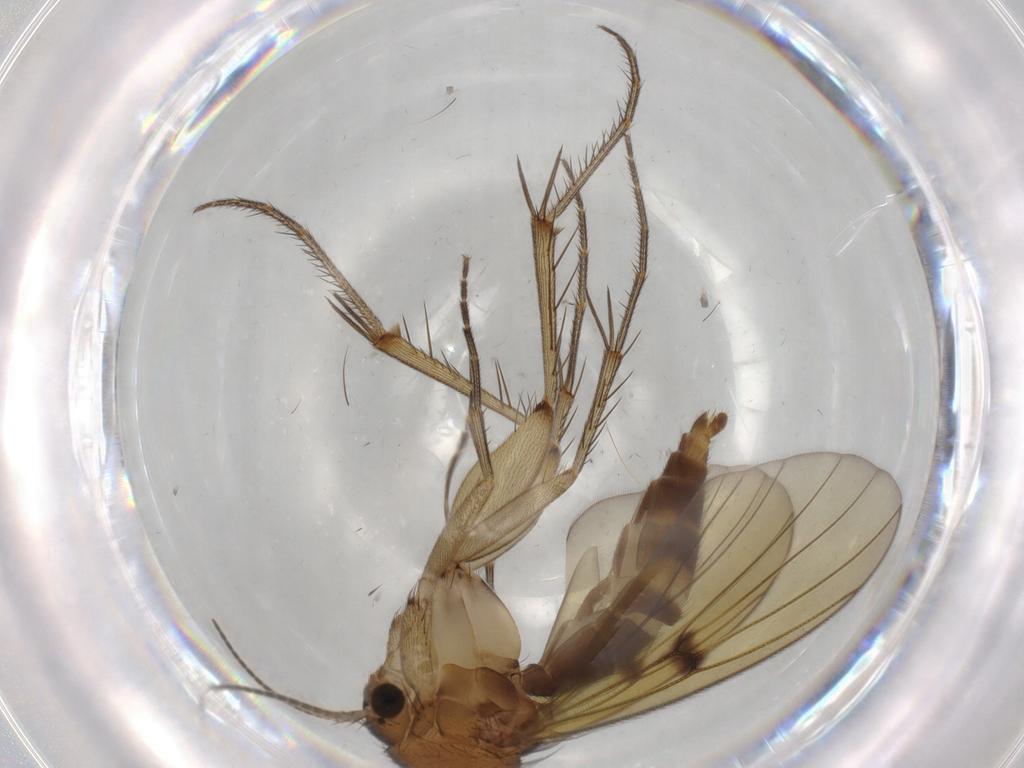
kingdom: Animalia
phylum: Arthropoda
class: Insecta
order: Diptera
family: Mycetophilidae
